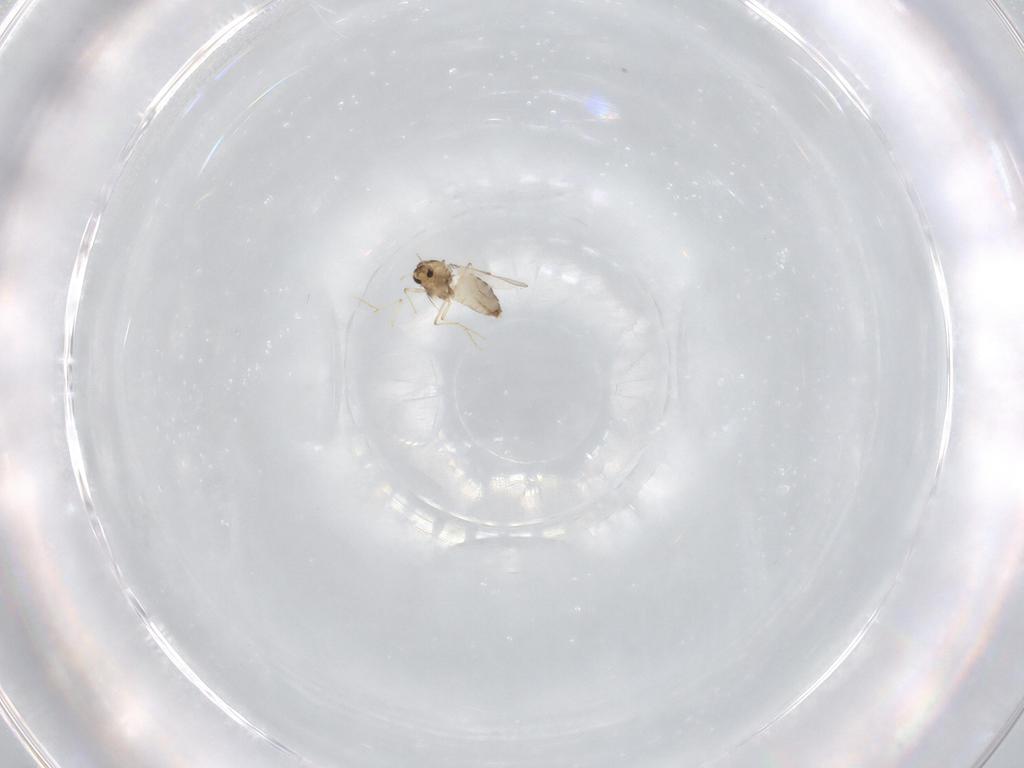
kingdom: Animalia
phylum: Arthropoda
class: Insecta
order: Diptera
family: Chironomidae
